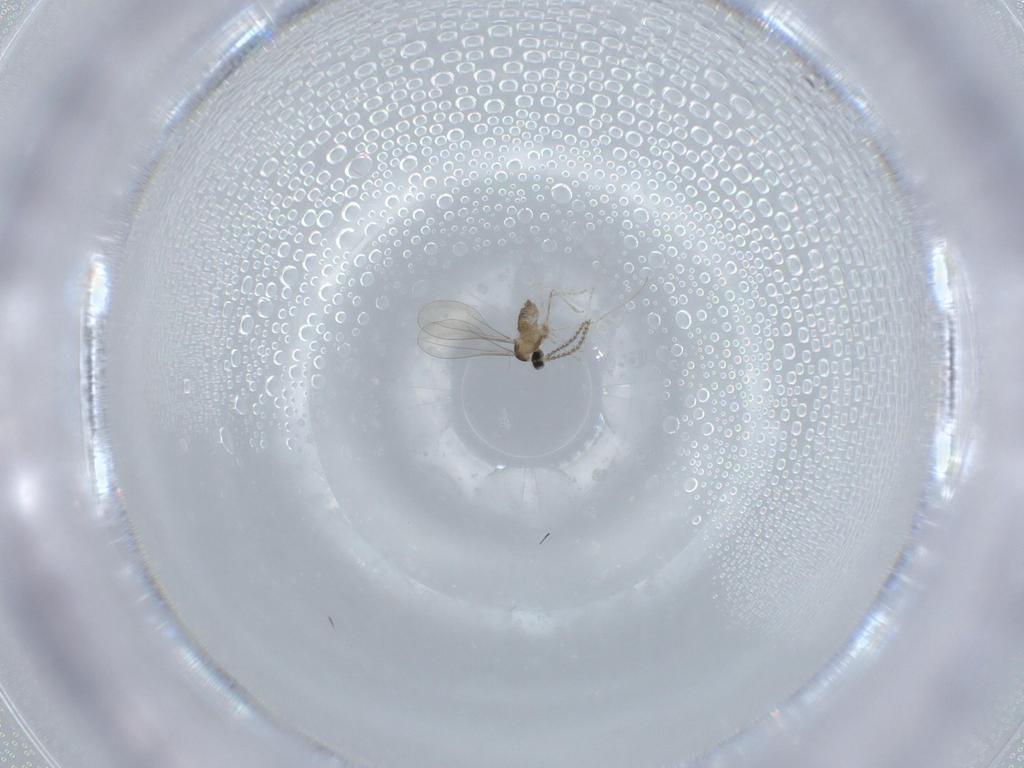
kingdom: Animalia
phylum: Arthropoda
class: Insecta
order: Diptera
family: Cecidomyiidae
